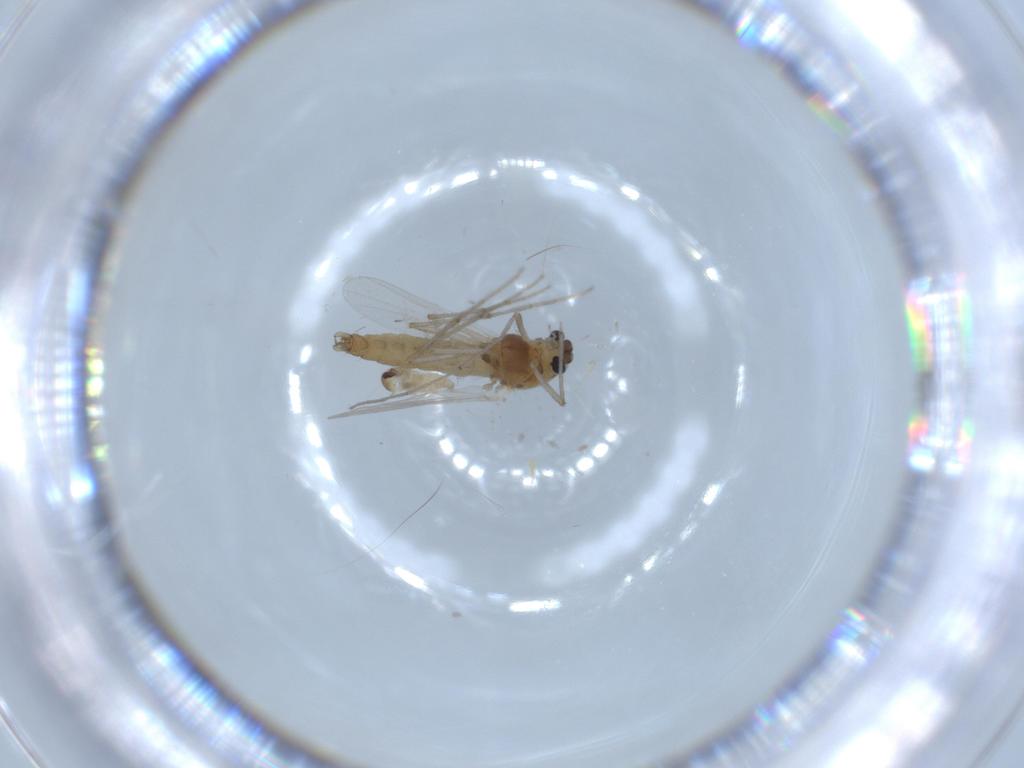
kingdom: Animalia
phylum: Arthropoda
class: Insecta
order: Diptera
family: Chironomidae
